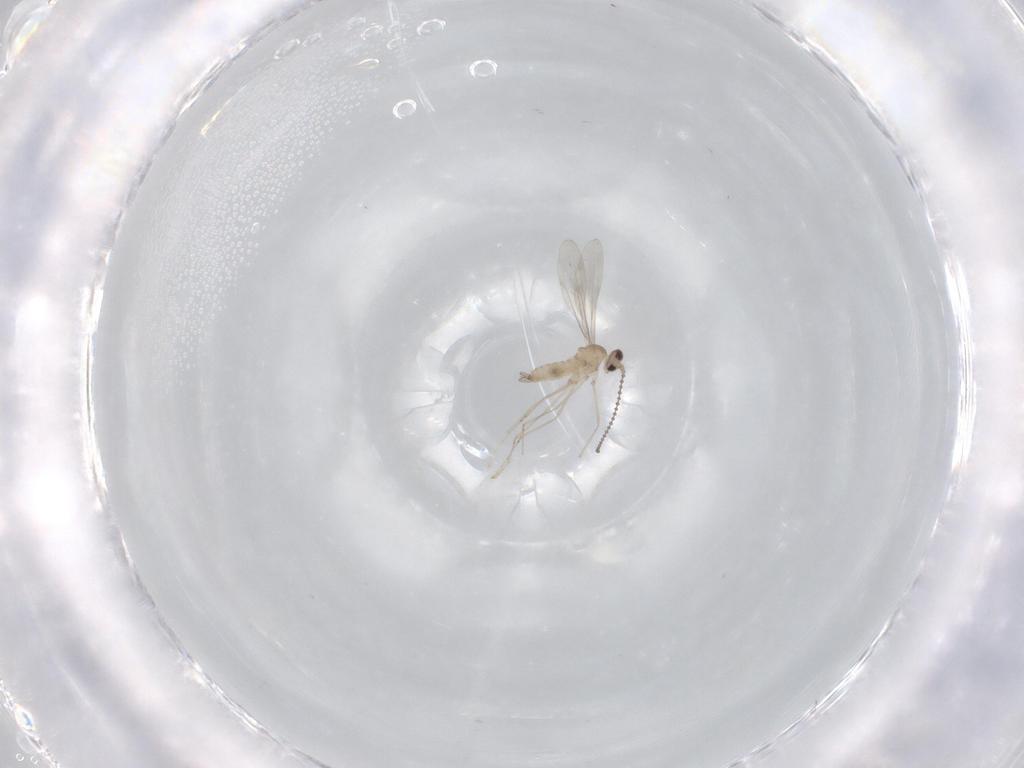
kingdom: Animalia
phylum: Arthropoda
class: Insecta
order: Diptera
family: Cecidomyiidae
